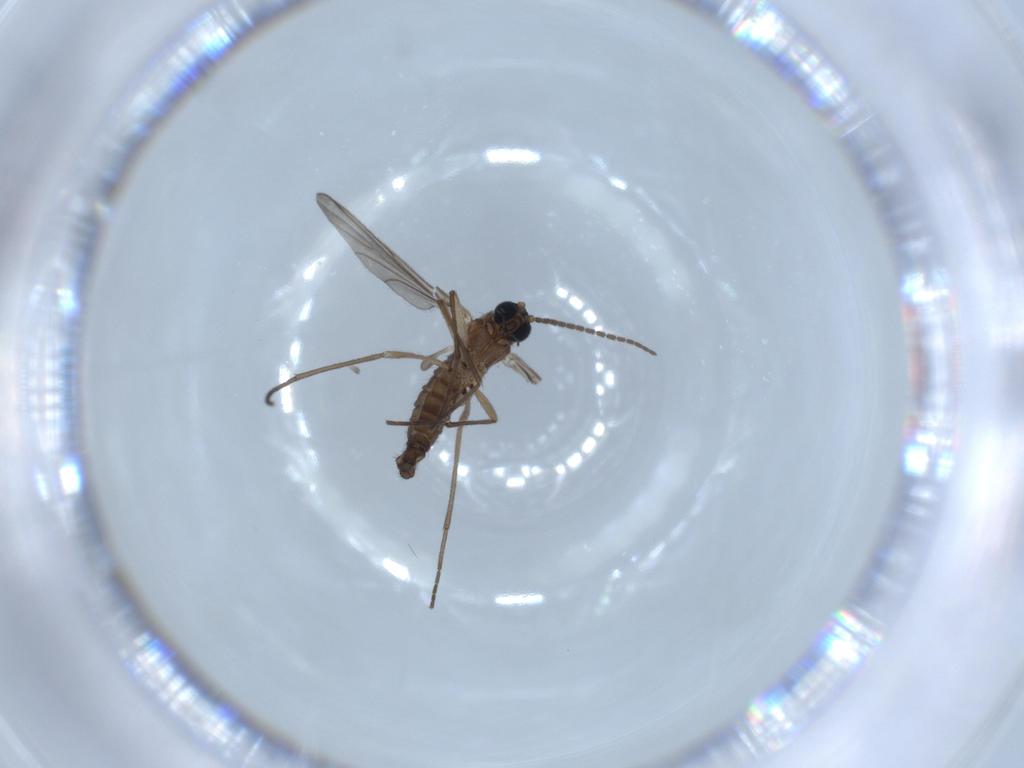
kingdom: Animalia
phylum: Arthropoda
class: Insecta
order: Diptera
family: Sciaridae
